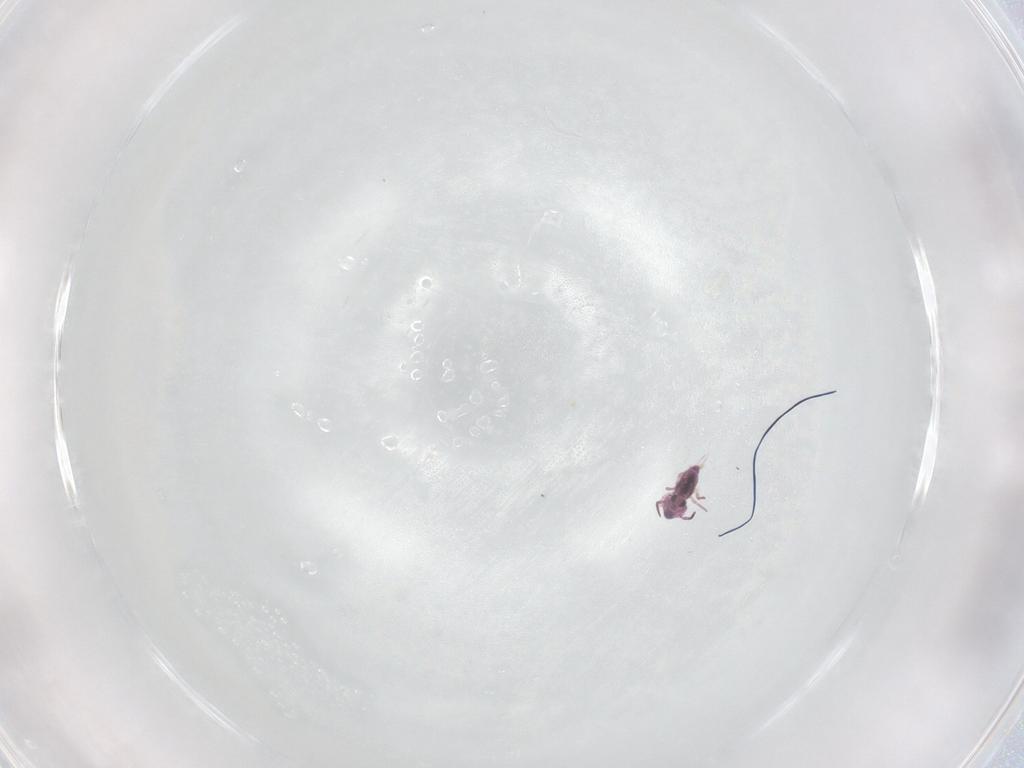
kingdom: Animalia
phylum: Arthropoda
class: Collembola
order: Symphypleona
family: Sminthurididae
